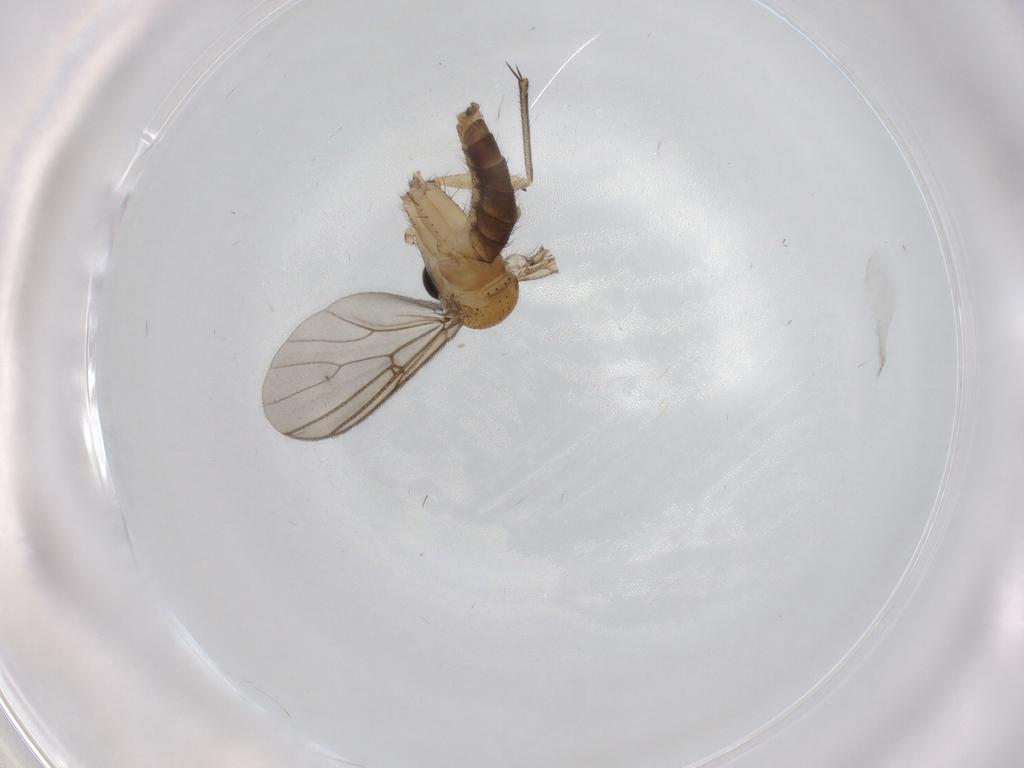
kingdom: Animalia
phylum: Arthropoda
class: Insecta
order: Diptera
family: Mycetophilidae
